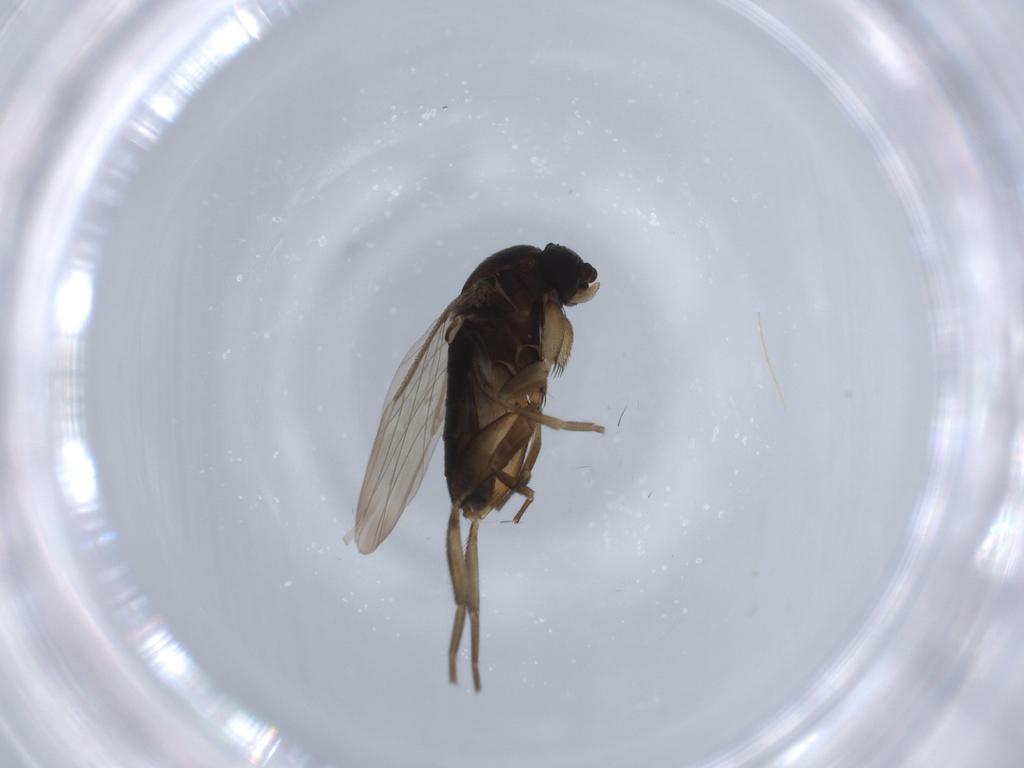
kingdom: Animalia
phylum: Arthropoda
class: Insecta
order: Diptera
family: Phoridae
